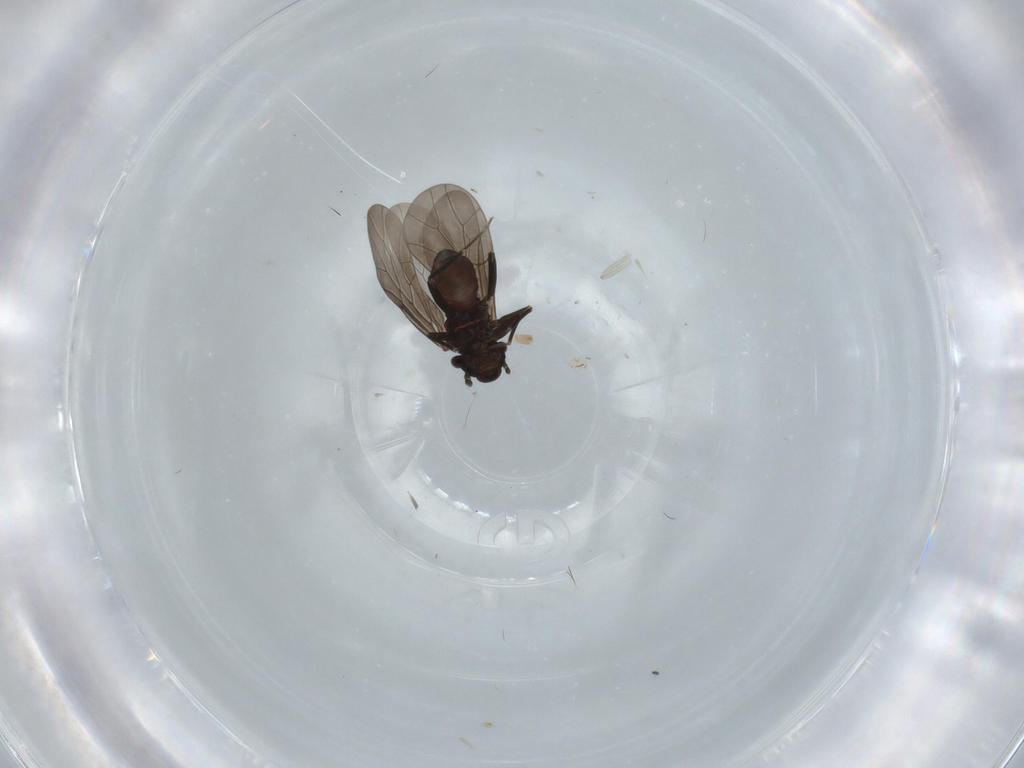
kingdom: Animalia
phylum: Arthropoda
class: Insecta
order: Psocodea
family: Lepidopsocidae
